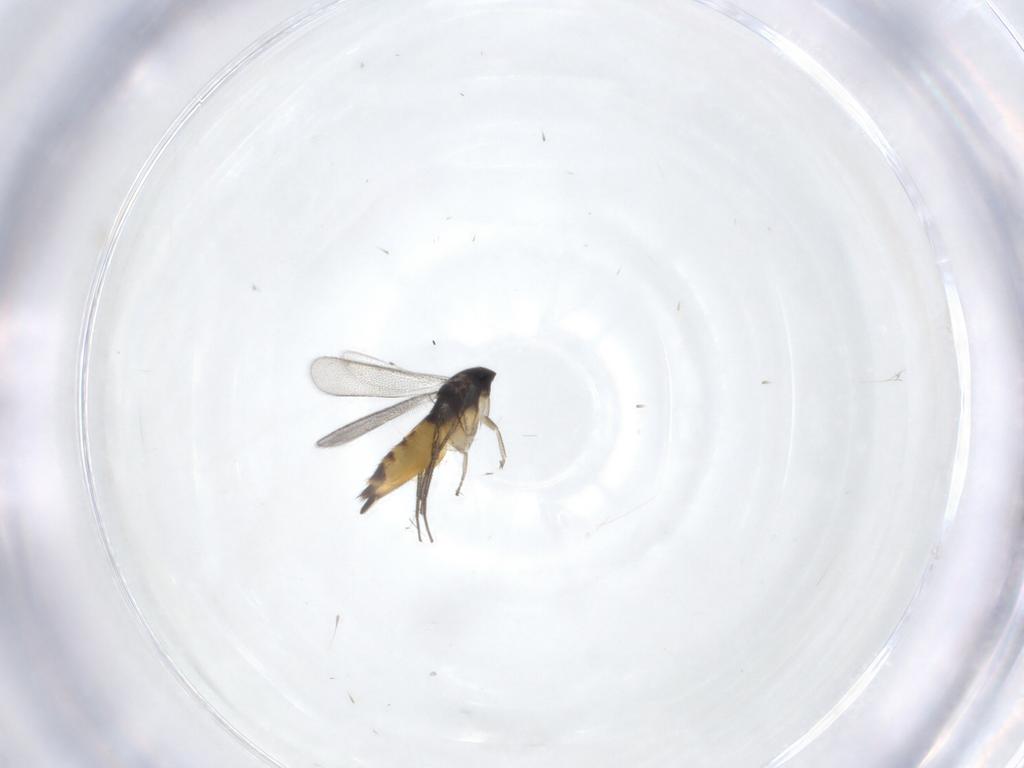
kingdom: Animalia
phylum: Arthropoda
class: Insecta
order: Hymenoptera
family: Eulophidae
